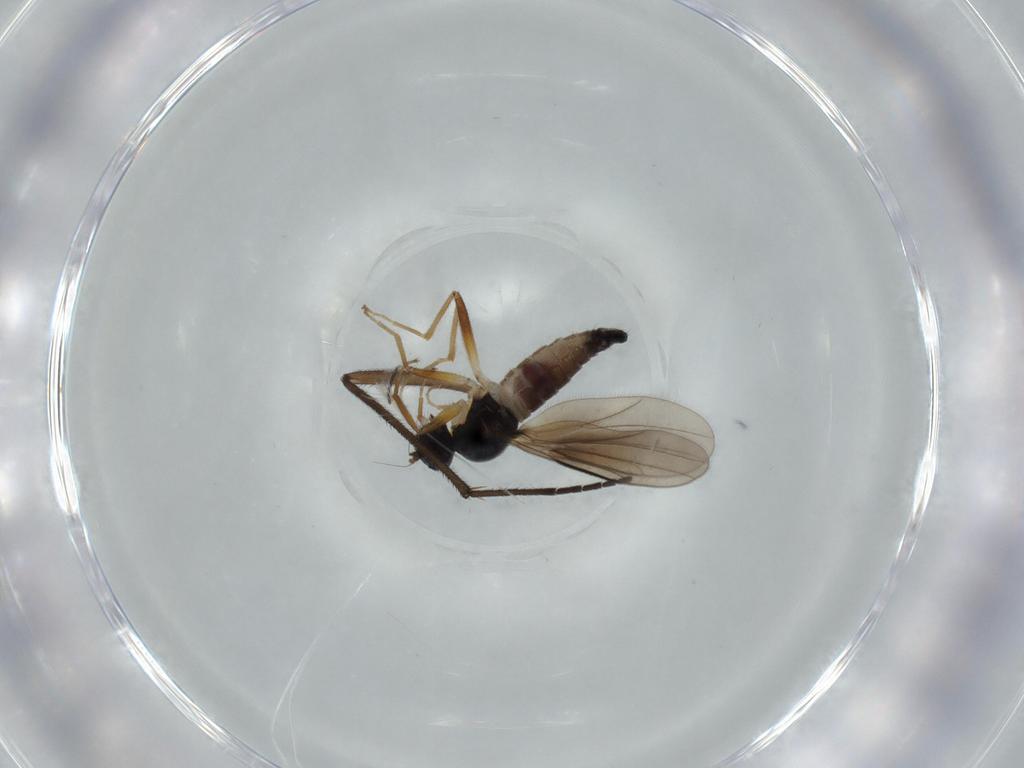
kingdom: Animalia
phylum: Arthropoda
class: Insecta
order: Diptera
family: Hybotidae
